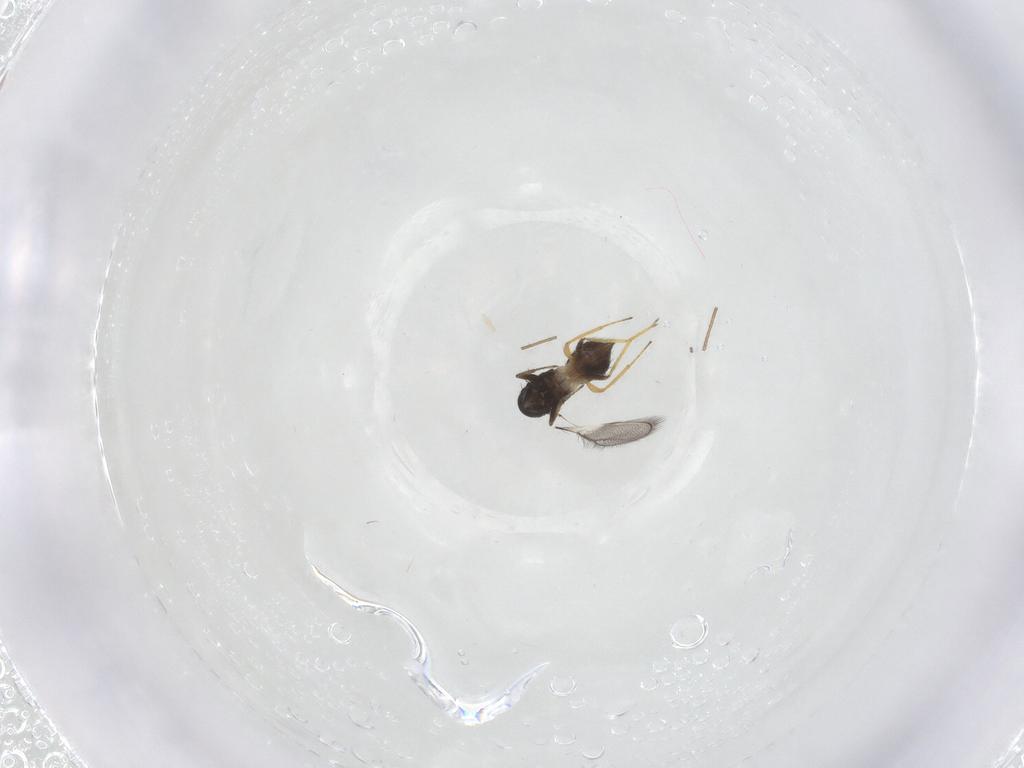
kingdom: Animalia
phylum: Arthropoda
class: Insecta
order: Hymenoptera
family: Eulophidae
